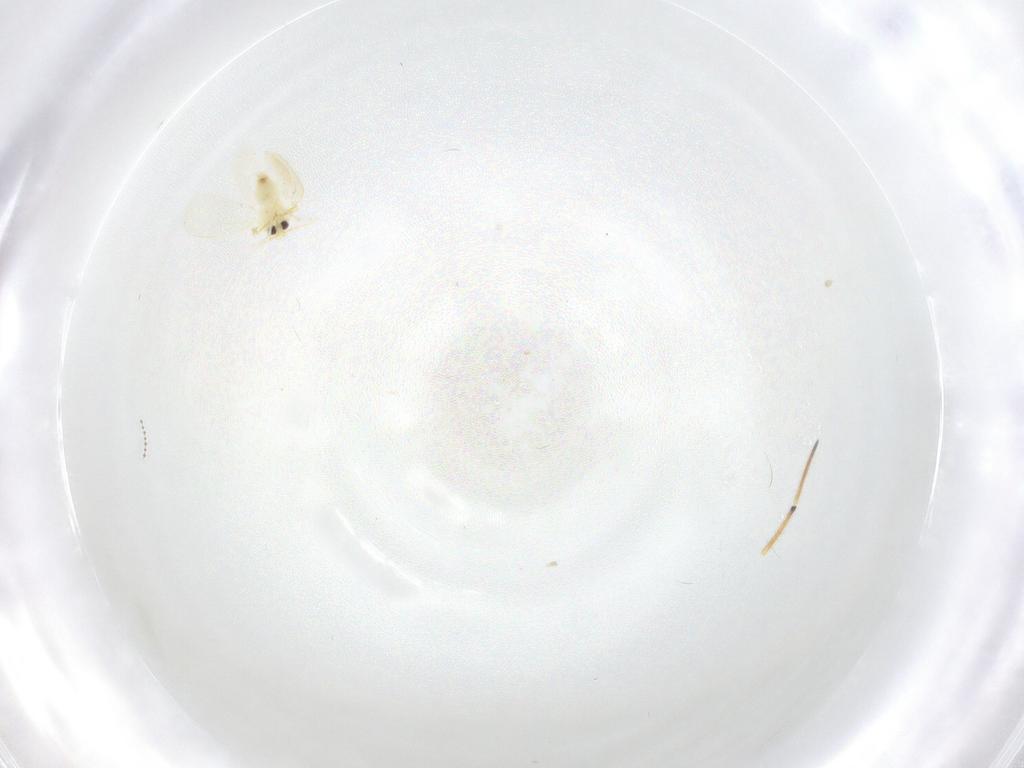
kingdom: Animalia
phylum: Arthropoda
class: Insecta
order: Hemiptera
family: Aleyrodidae
